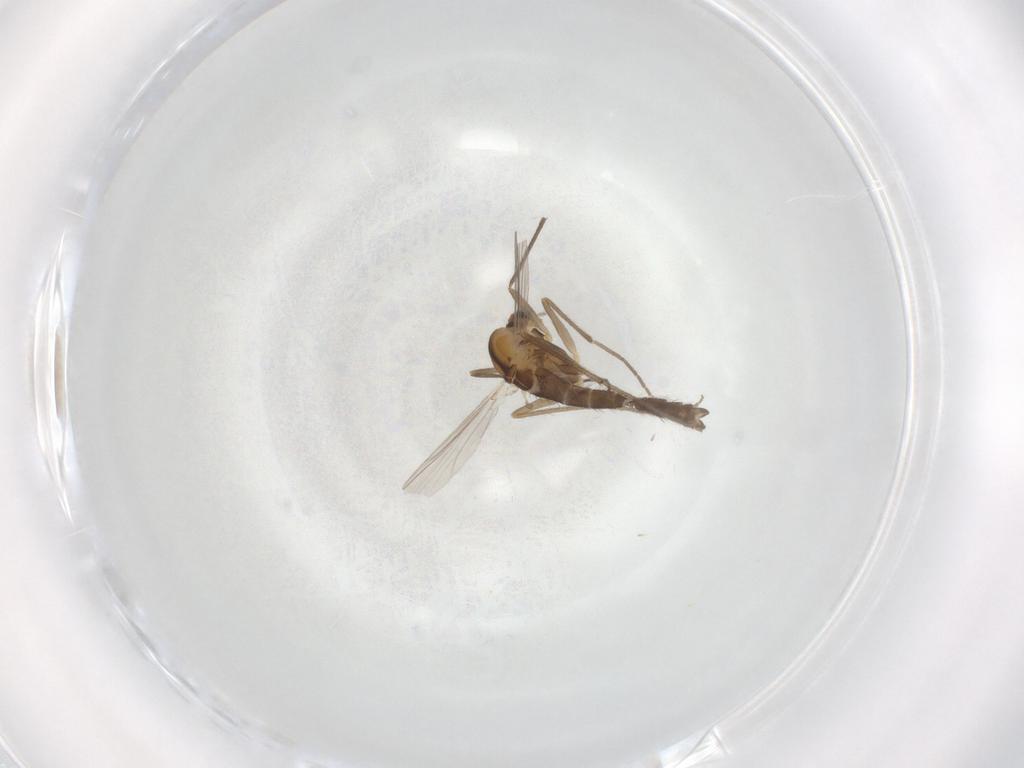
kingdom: Animalia
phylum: Arthropoda
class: Insecta
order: Diptera
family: Chironomidae
